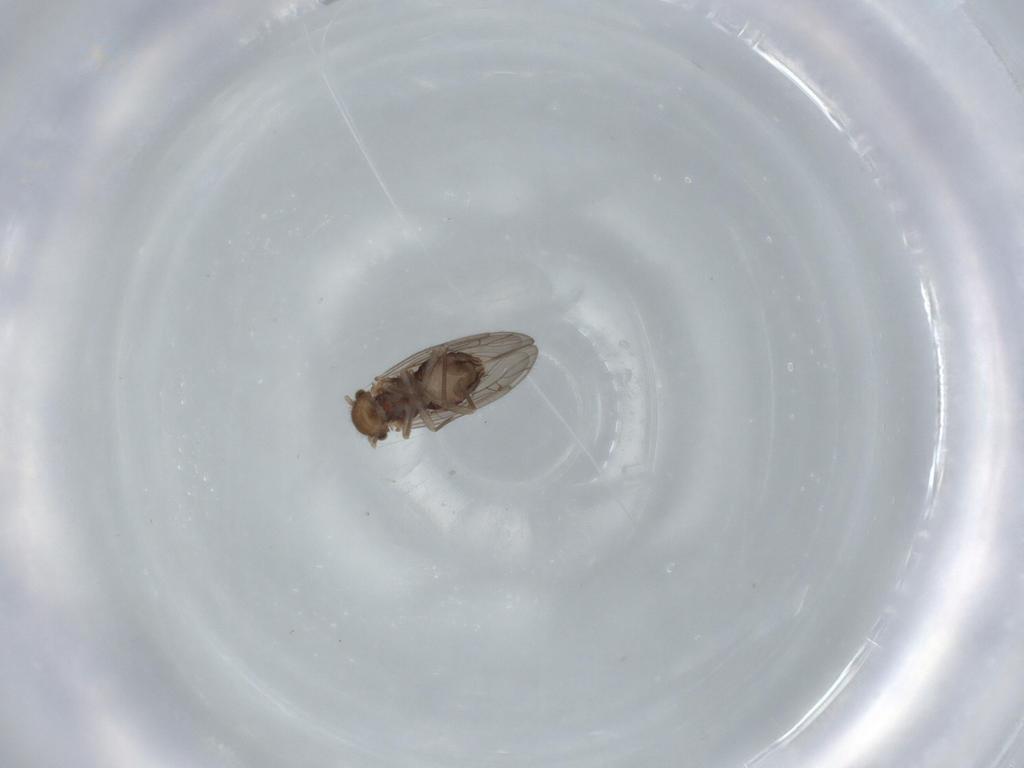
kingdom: Animalia
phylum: Arthropoda
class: Insecta
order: Psocodea
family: Ectopsocidae
